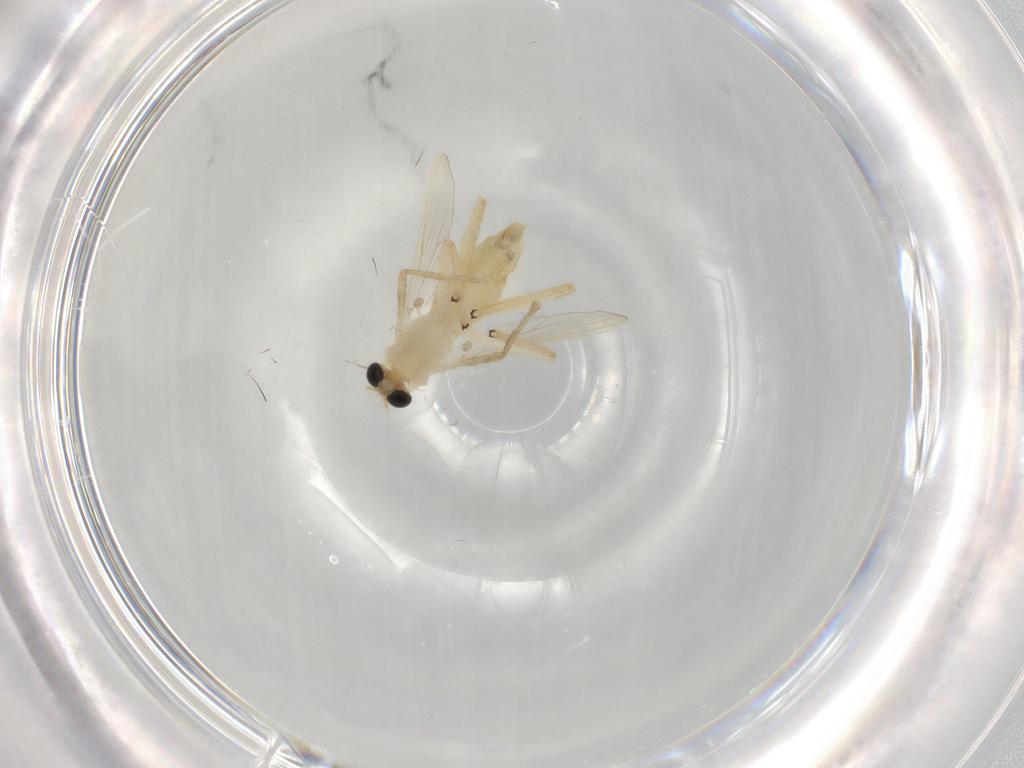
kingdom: Animalia
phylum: Arthropoda
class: Insecta
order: Diptera
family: Chironomidae
